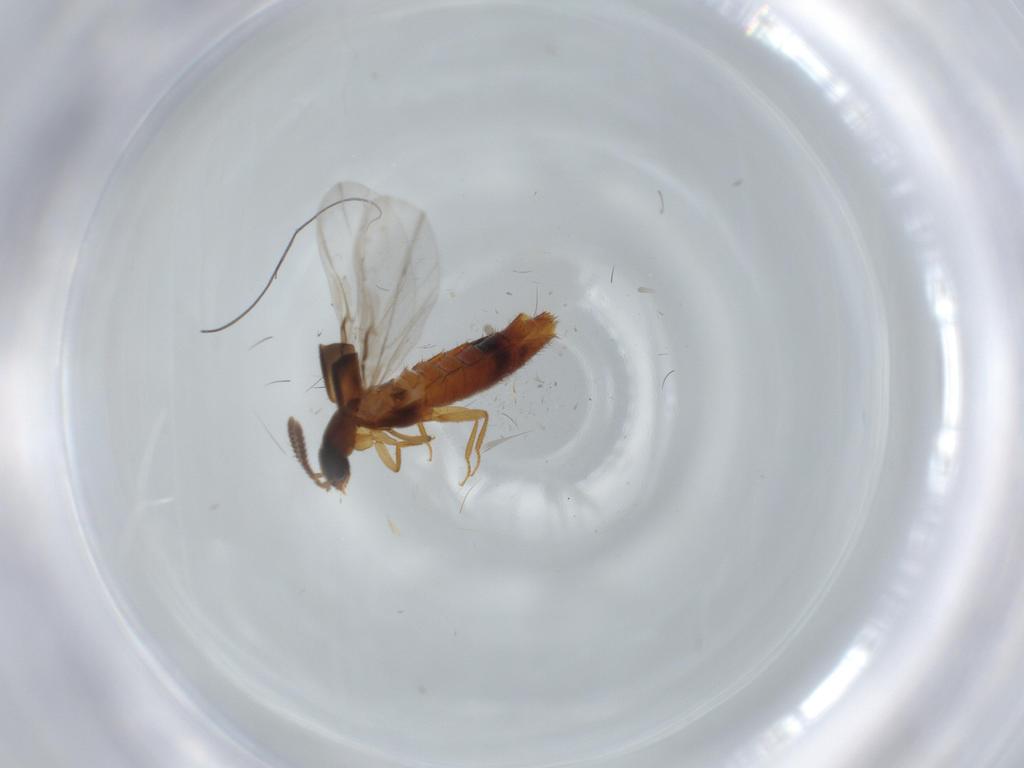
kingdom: Animalia
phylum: Arthropoda
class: Insecta
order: Coleoptera
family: Staphylinidae
